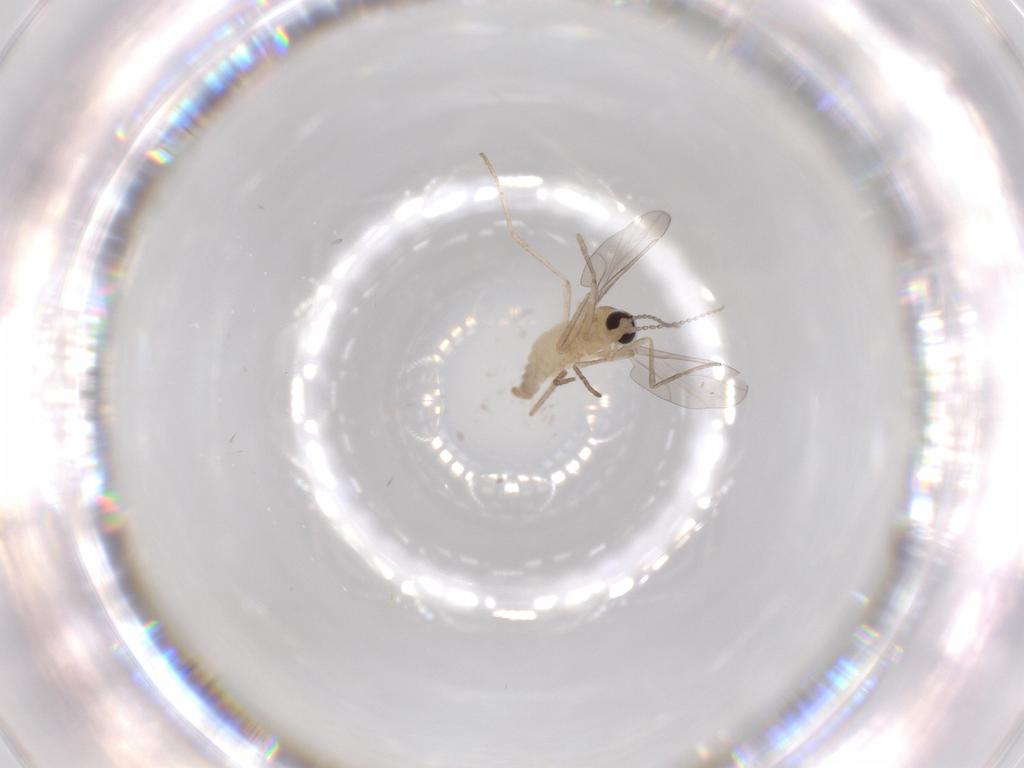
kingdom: Animalia
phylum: Arthropoda
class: Insecta
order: Diptera
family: Cecidomyiidae
